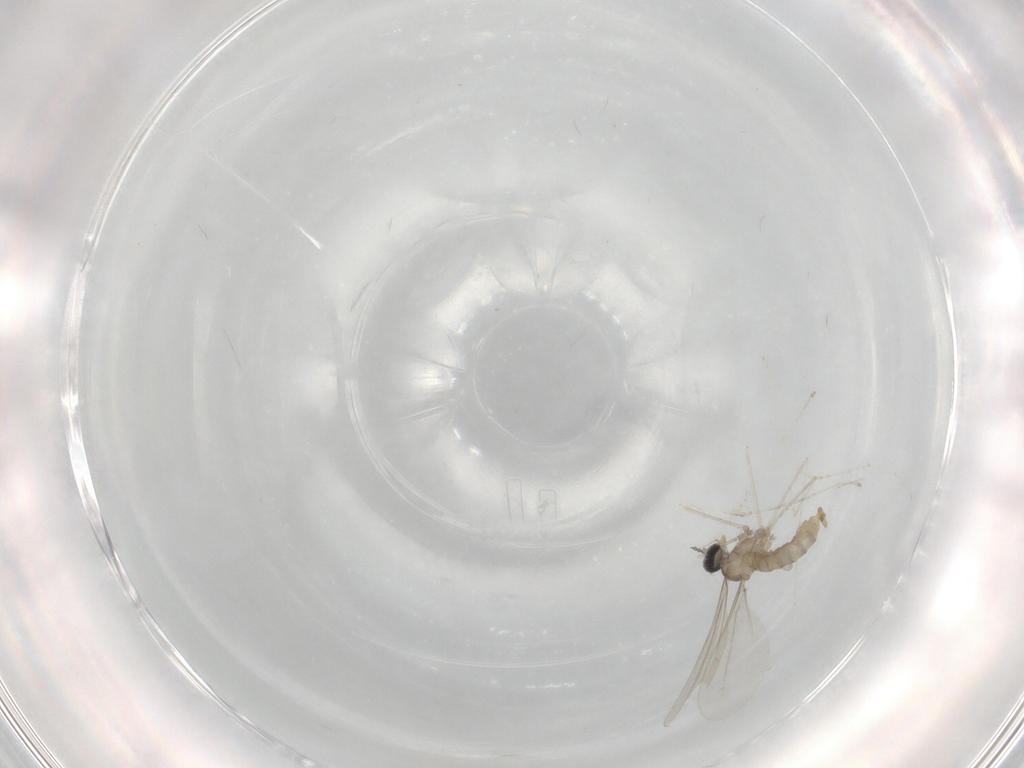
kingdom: Animalia
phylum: Arthropoda
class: Insecta
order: Diptera
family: Cecidomyiidae
